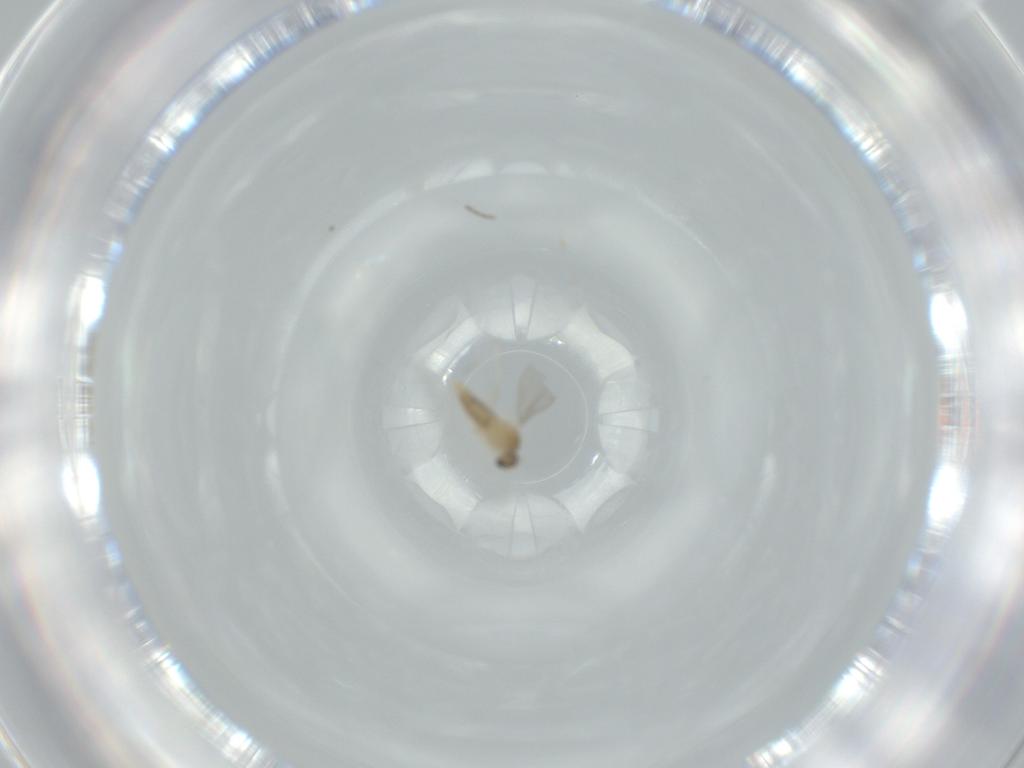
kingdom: Animalia
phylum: Arthropoda
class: Insecta
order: Diptera
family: Cecidomyiidae
